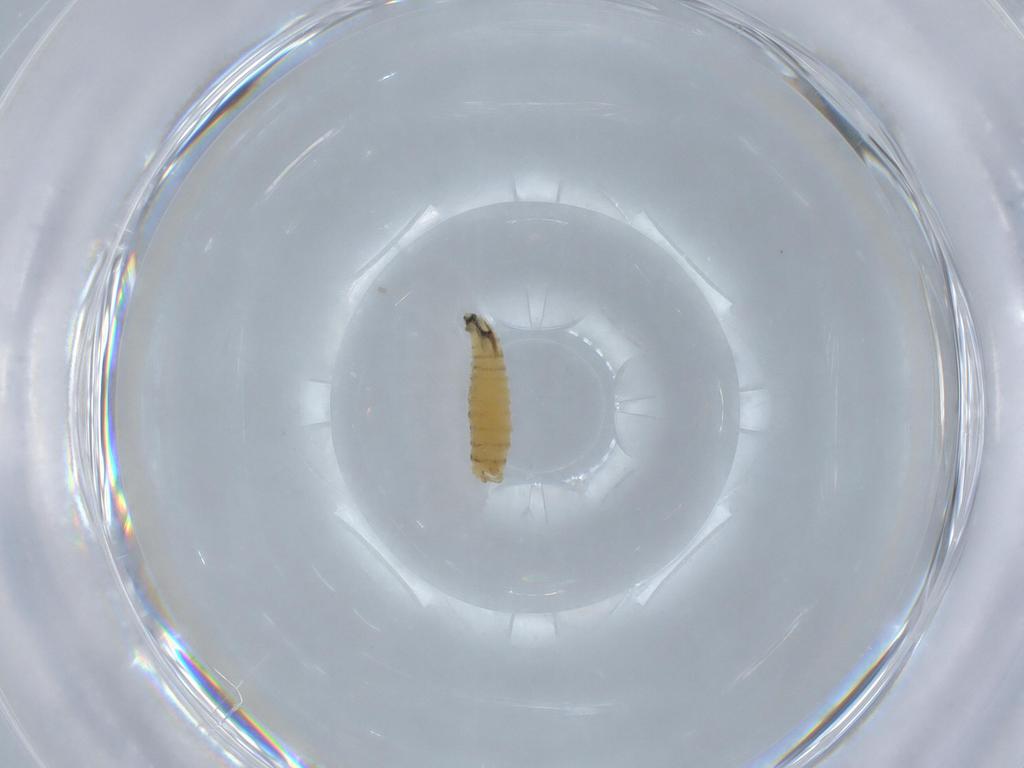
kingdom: Animalia
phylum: Arthropoda
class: Insecta
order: Diptera
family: Sarcophagidae
